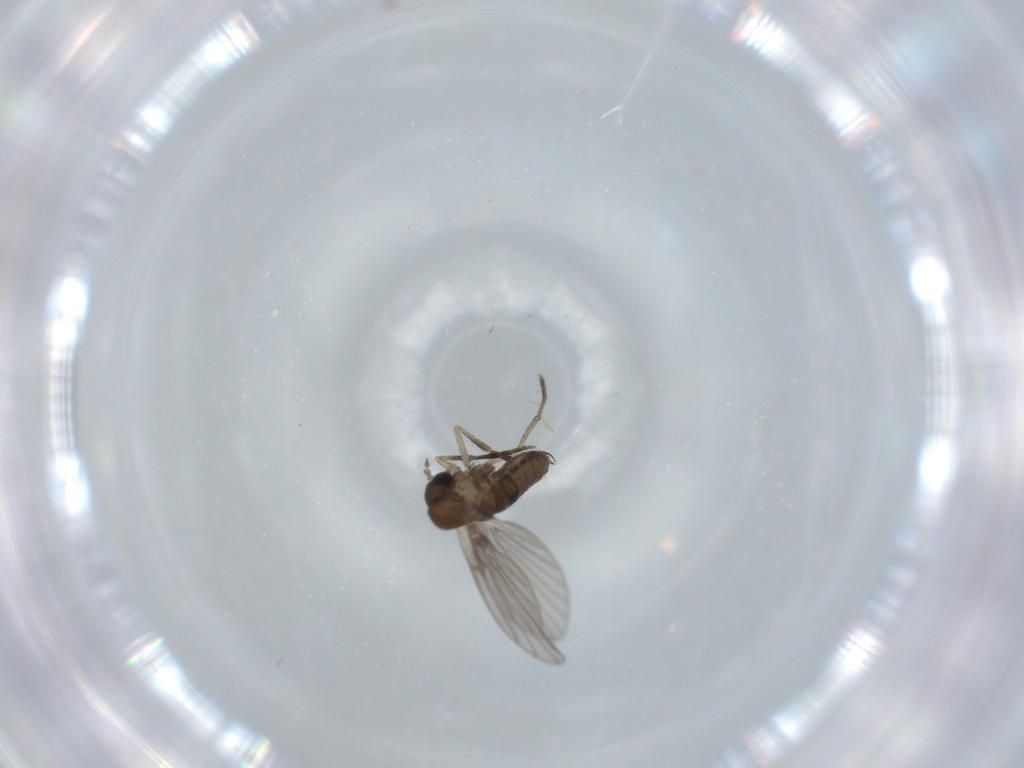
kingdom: Animalia
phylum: Arthropoda
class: Insecta
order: Diptera
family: Psychodidae
